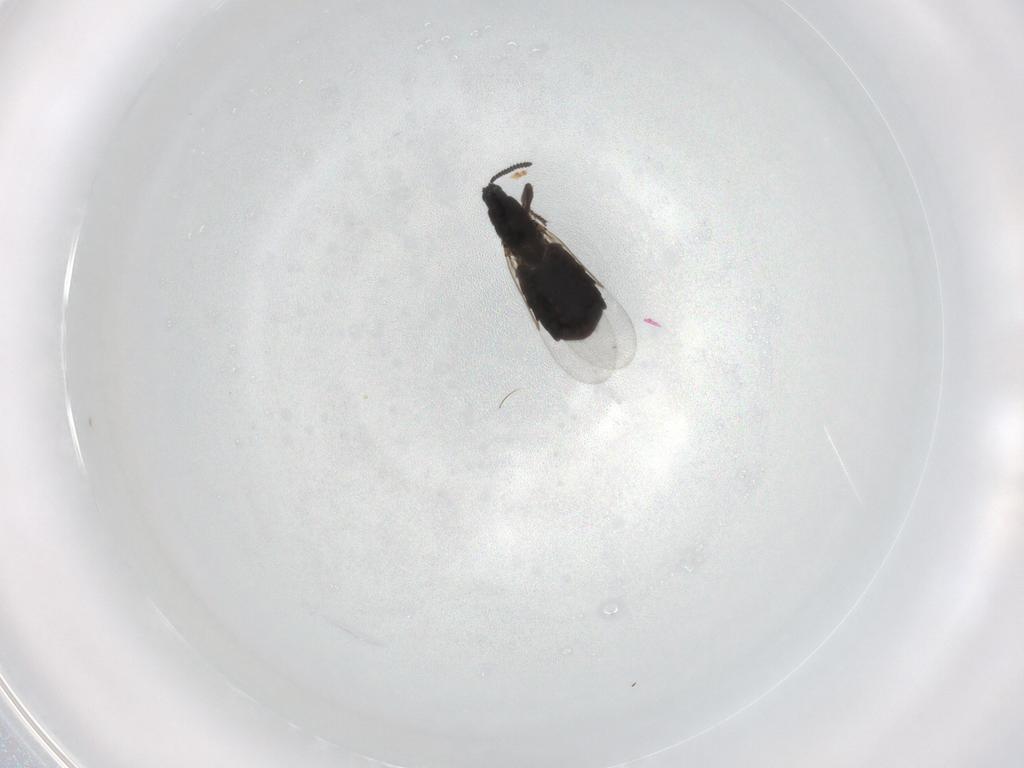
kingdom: Animalia
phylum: Arthropoda
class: Insecta
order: Diptera
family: Scatopsidae
